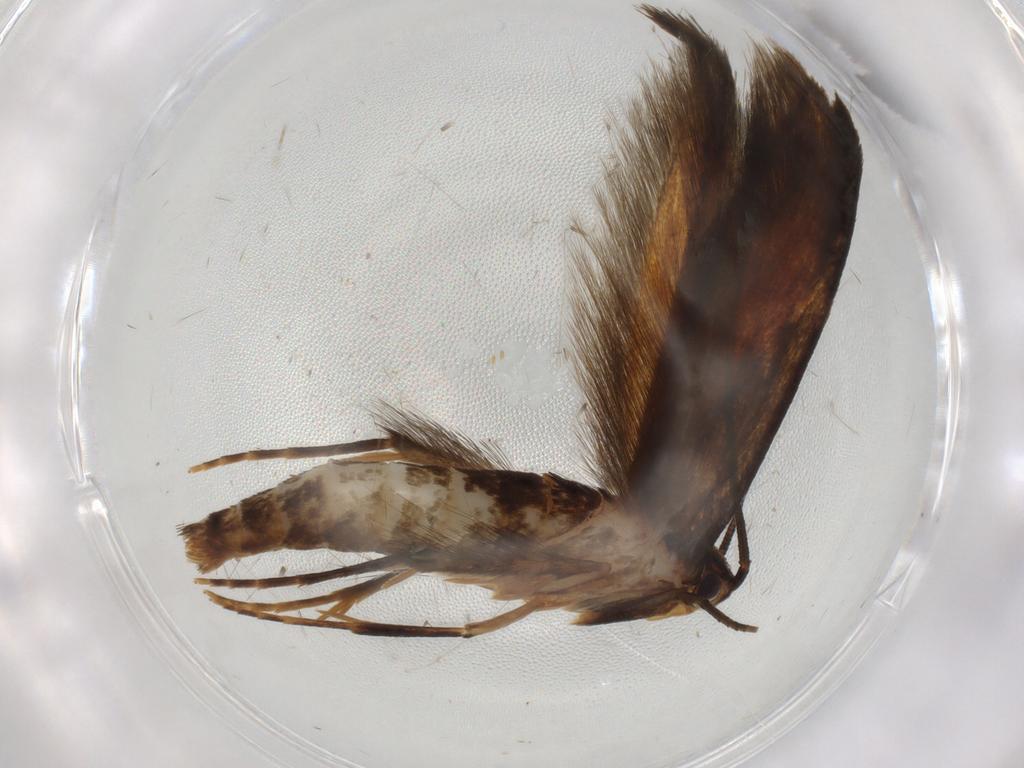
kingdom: Animalia
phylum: Arthropoda
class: Insecta
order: Lepidoptera
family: Tineidae
